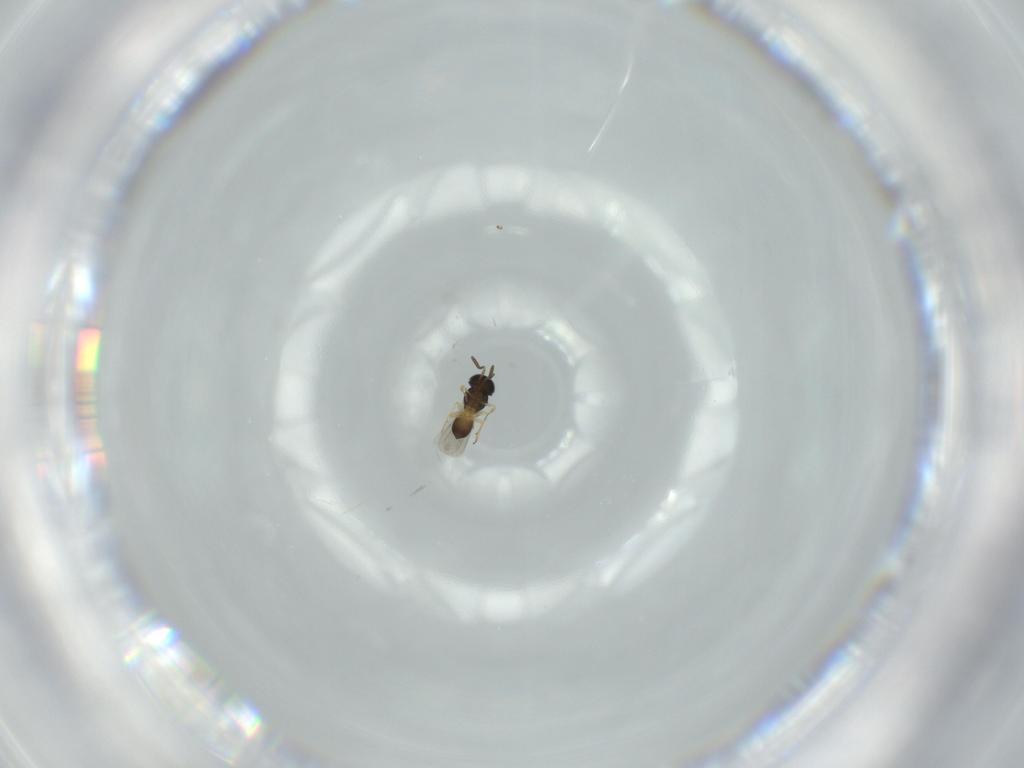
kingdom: Animalia
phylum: Arthropoda
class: Insecta
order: Hymenoptera
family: Scelionidae
